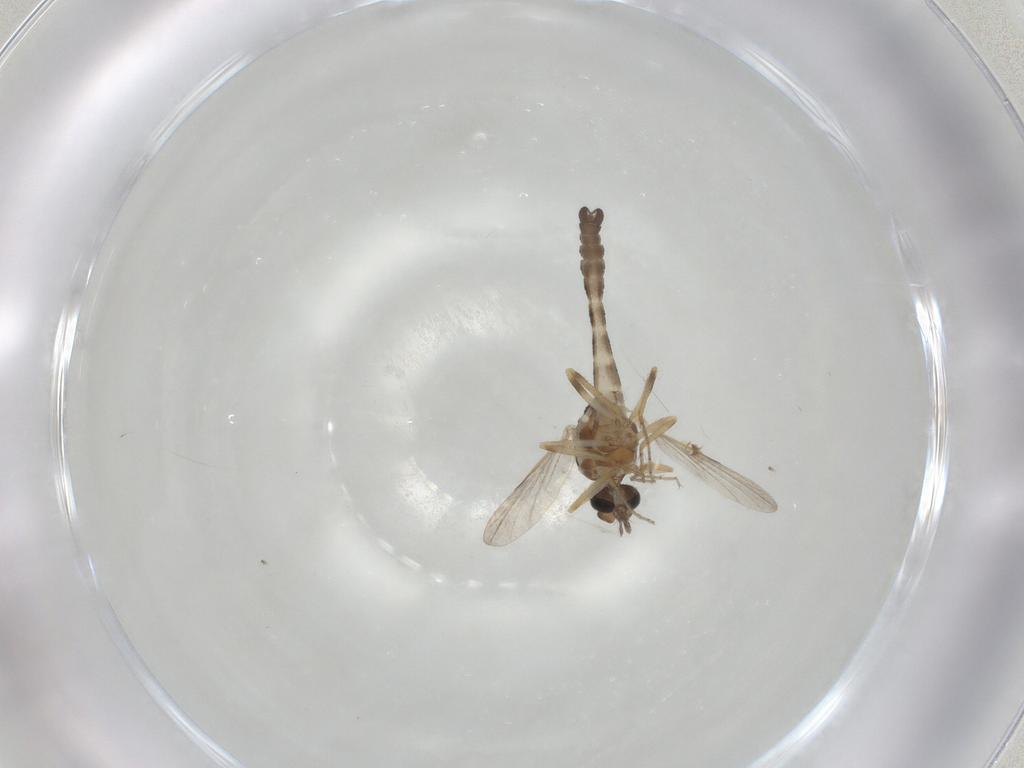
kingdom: Animalia
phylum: Arthropoda
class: Insecta
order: Diptera
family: Ceratopogonidae
